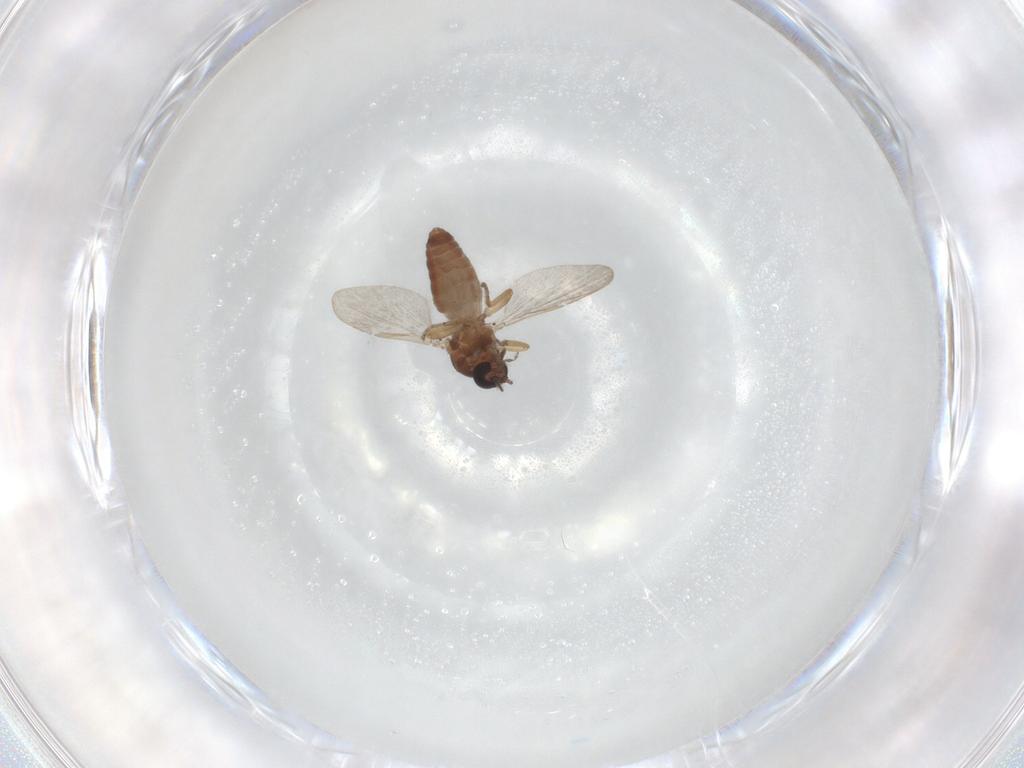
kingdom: Animalia
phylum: Arthropoda
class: Insecta
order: Diptera
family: Ceratopogonidae
